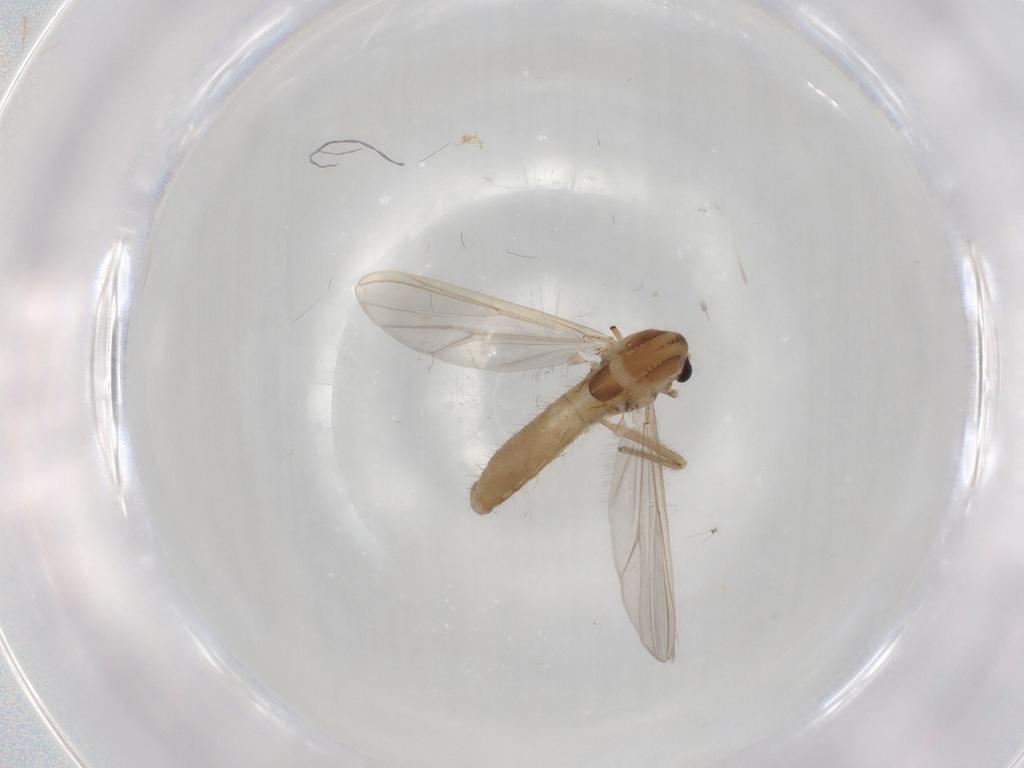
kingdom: Animalia
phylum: Arthropoda
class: Insecta
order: Diptera
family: Chironomidae
